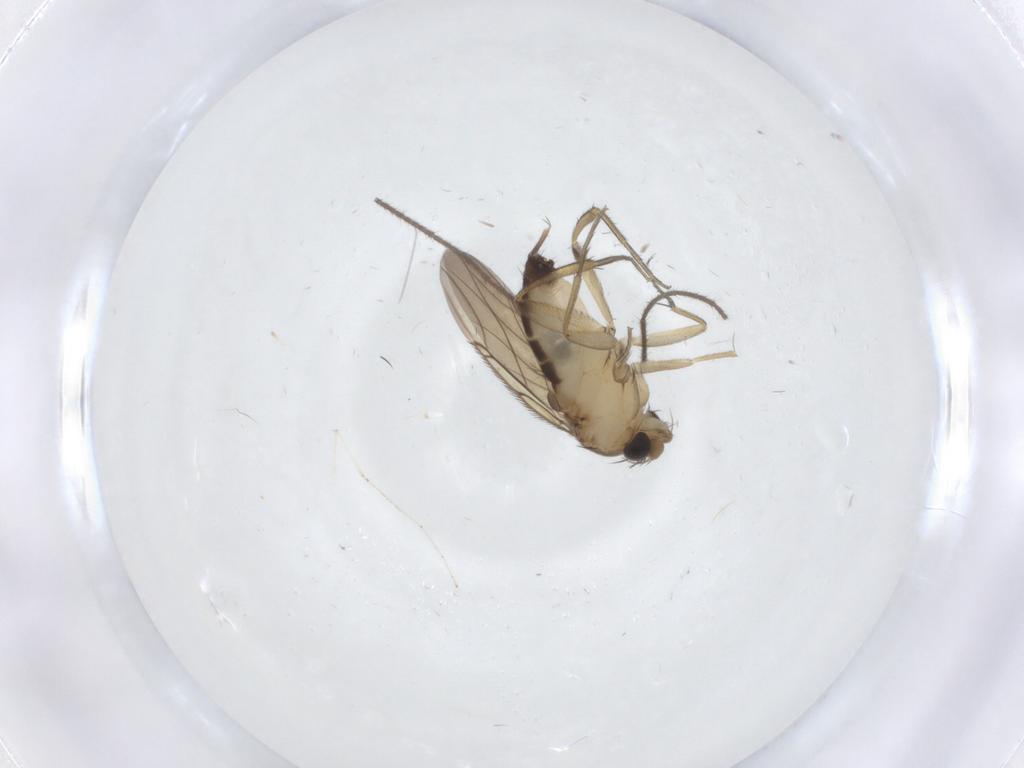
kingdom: Animalia
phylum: Arthropoda
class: Insecta
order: Diptera
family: Phoridae
